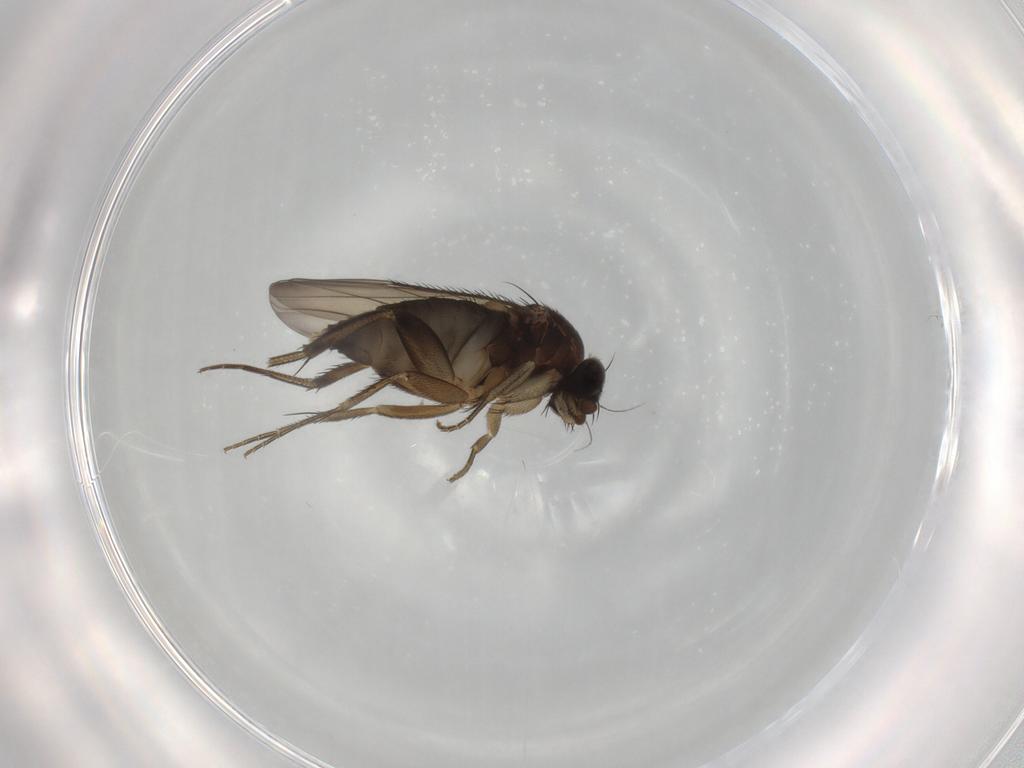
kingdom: Animalia
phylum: Arthropoda
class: Insecta
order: Diptera
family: Phoridae
